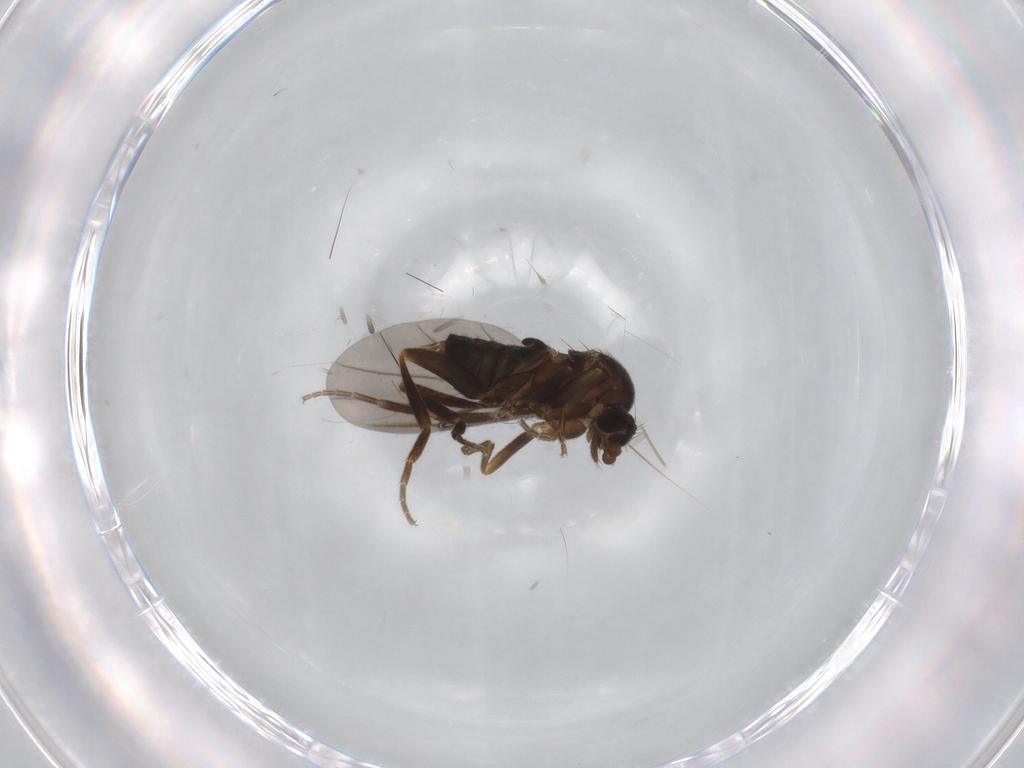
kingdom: Animalia
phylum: Arthropoda
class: Insecta
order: Diptera
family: Phoridae
